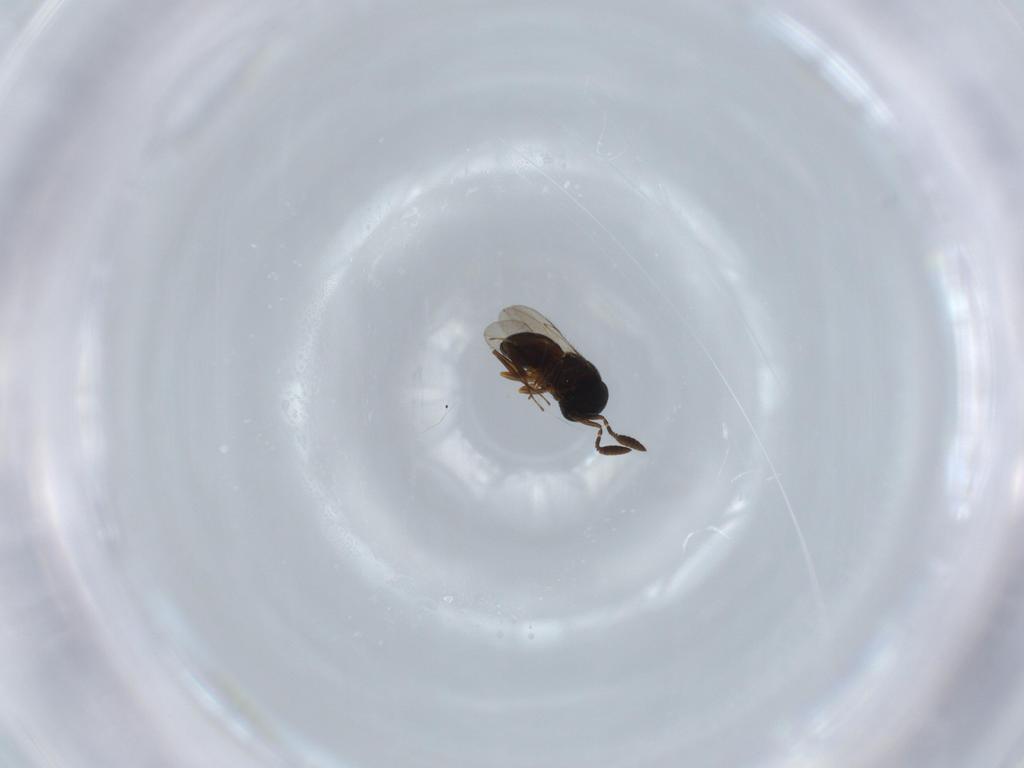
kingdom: Animalia
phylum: Arthropoda
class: Insecta
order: Hymenoptera
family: Scelionidae
